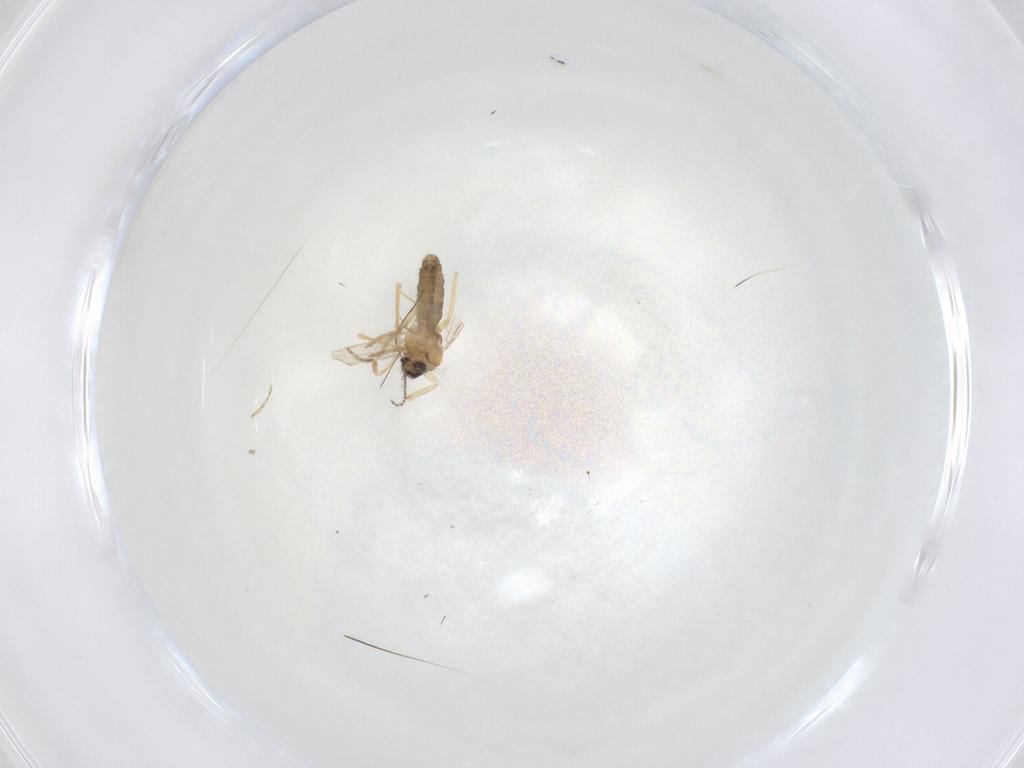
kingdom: Animalia
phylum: Arthropoda
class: Insecta
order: Diptera
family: Ceratopogonidae
